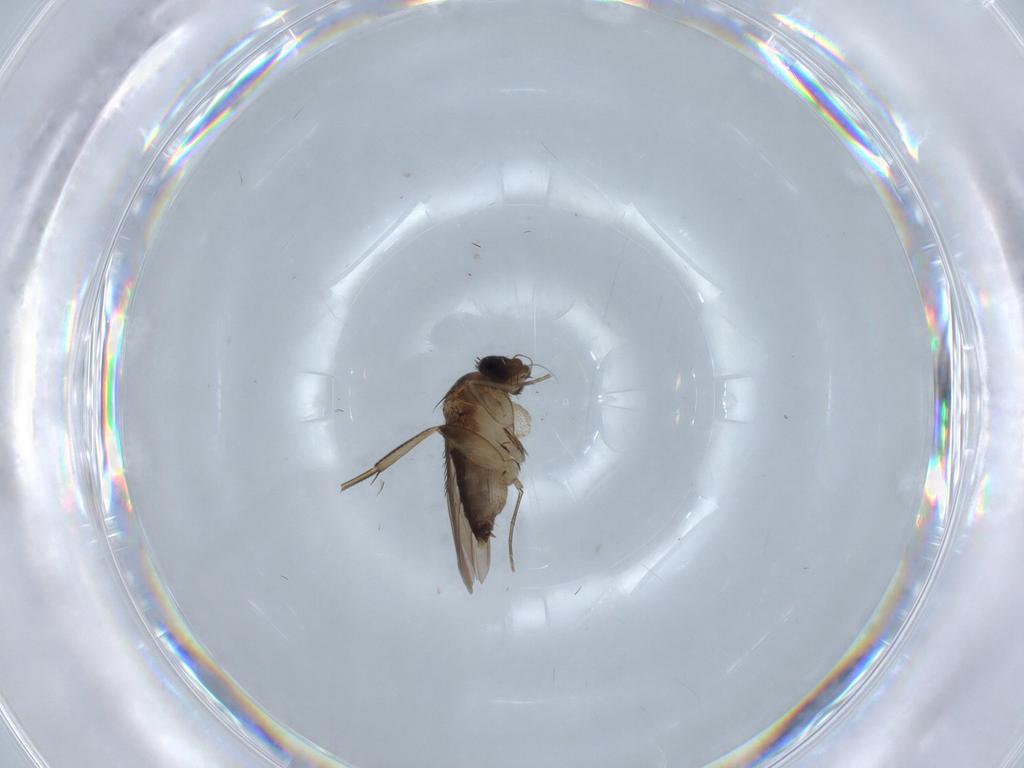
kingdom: Animalia
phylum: Arthropoda
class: Insecta
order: Diptera
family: Phoridae
